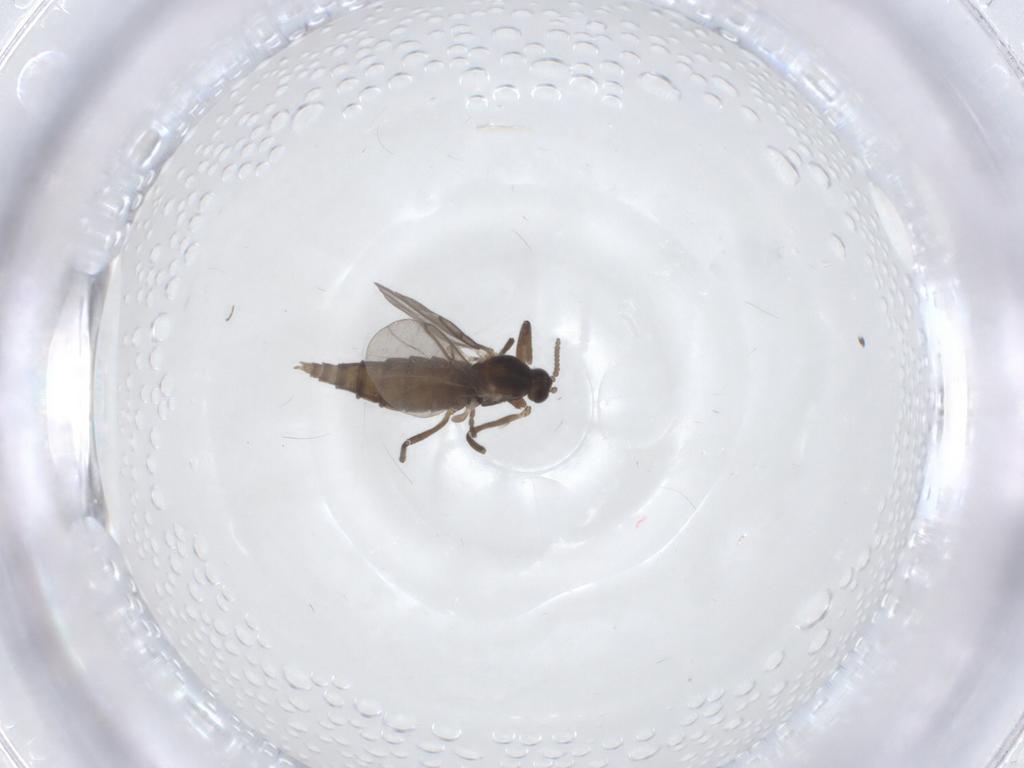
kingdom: Animalia
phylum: Arthropoda
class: Insecta
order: Diptera
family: Cecidomyiidae
